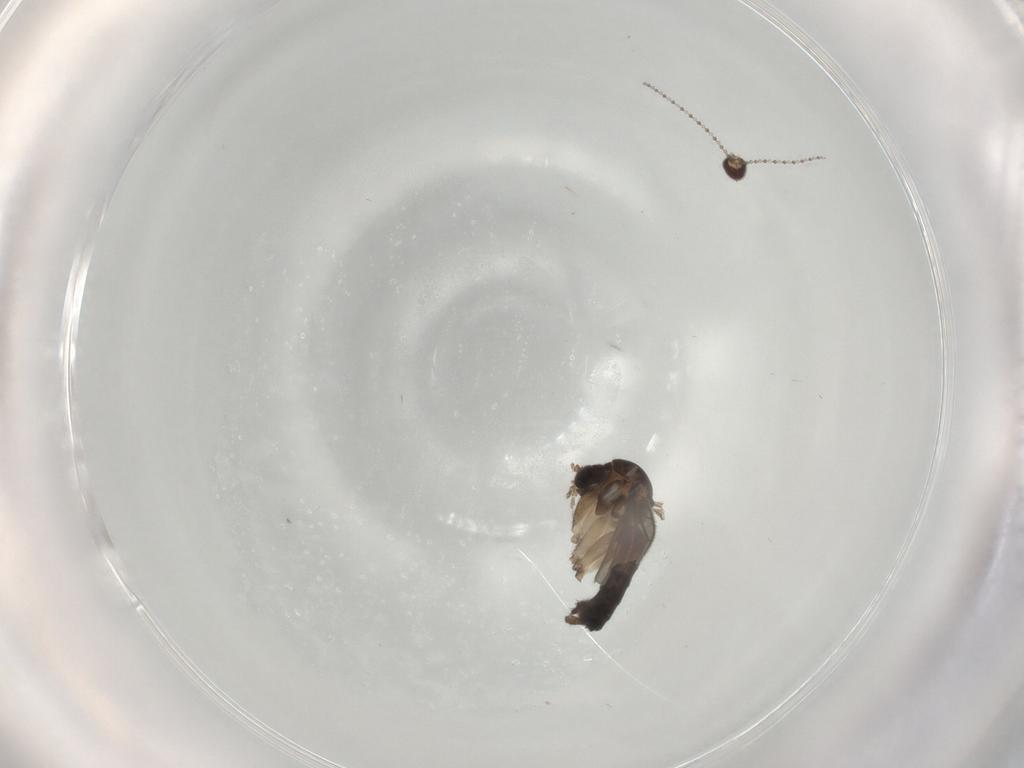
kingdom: Animalia
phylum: Arthropoda
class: Insecta
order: Diptera
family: Cecidomyiidae
